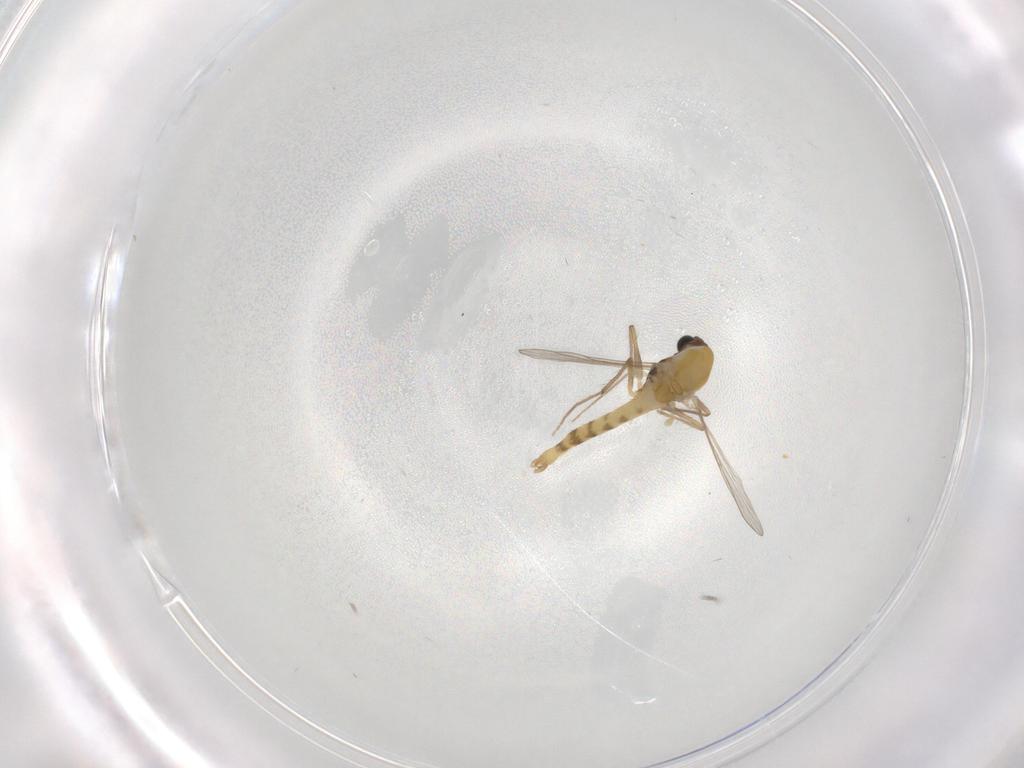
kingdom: Animalia
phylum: Arthropoda
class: Insecta
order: Diptera
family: Chironomidae
